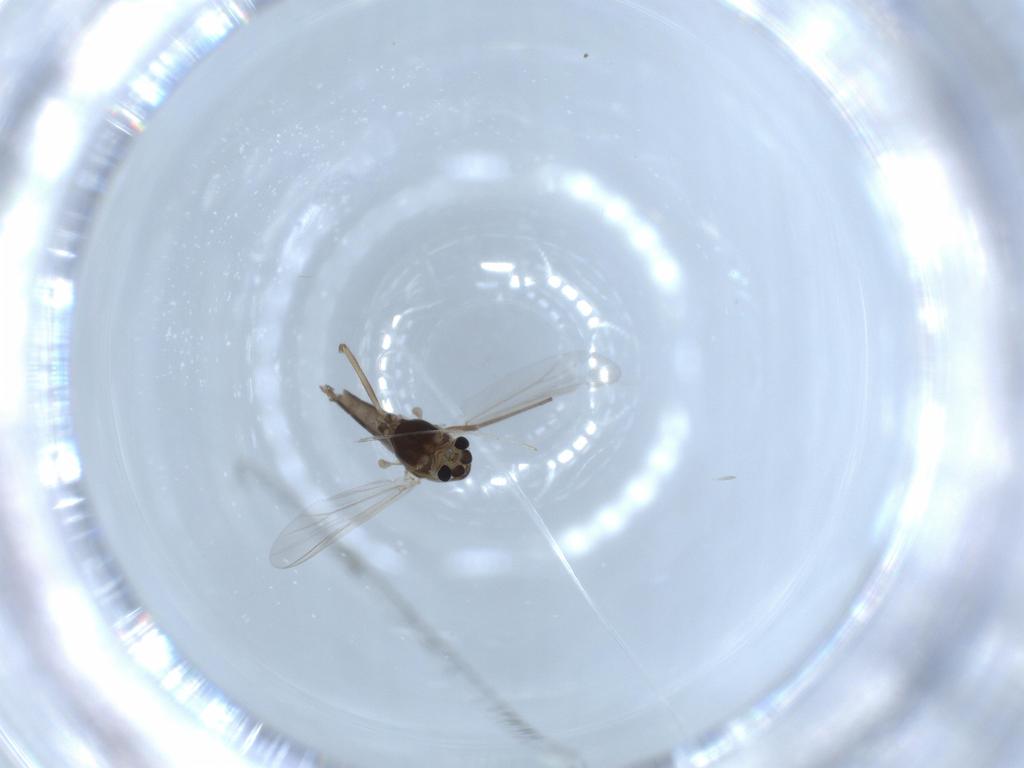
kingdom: Animalia
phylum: Arthropoda
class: Insecta
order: Diptera
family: Chironomidae
